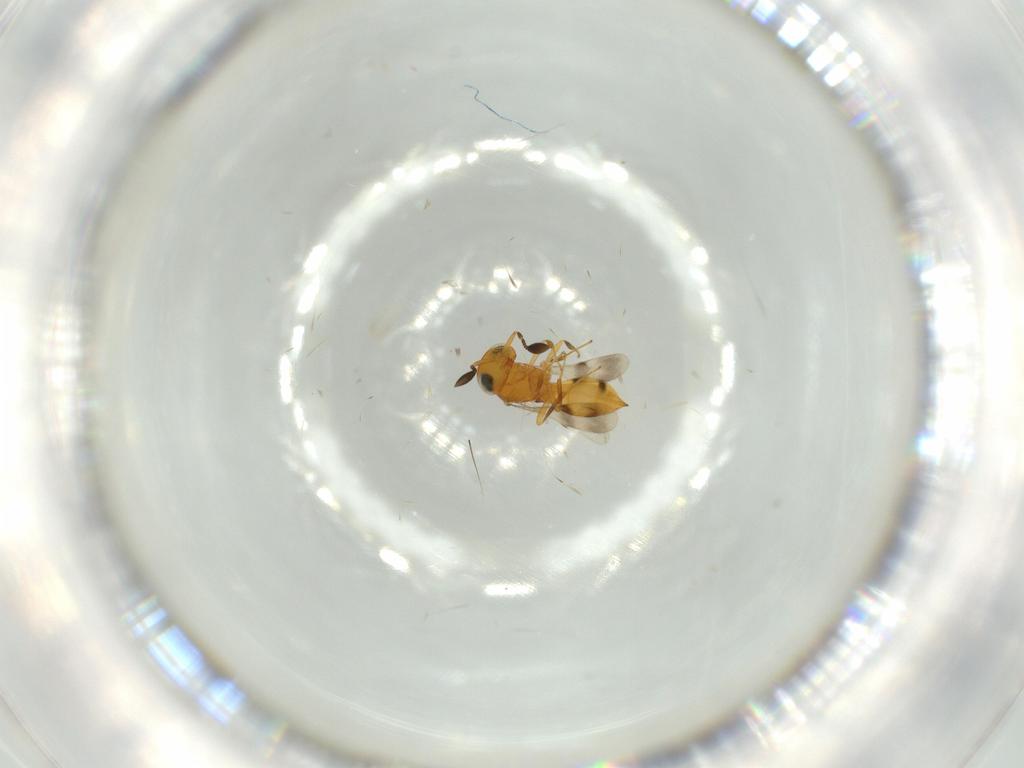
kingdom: Animalia
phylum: Arthropoda
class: Insecta
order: Hymenoptera
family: Scelionidae
